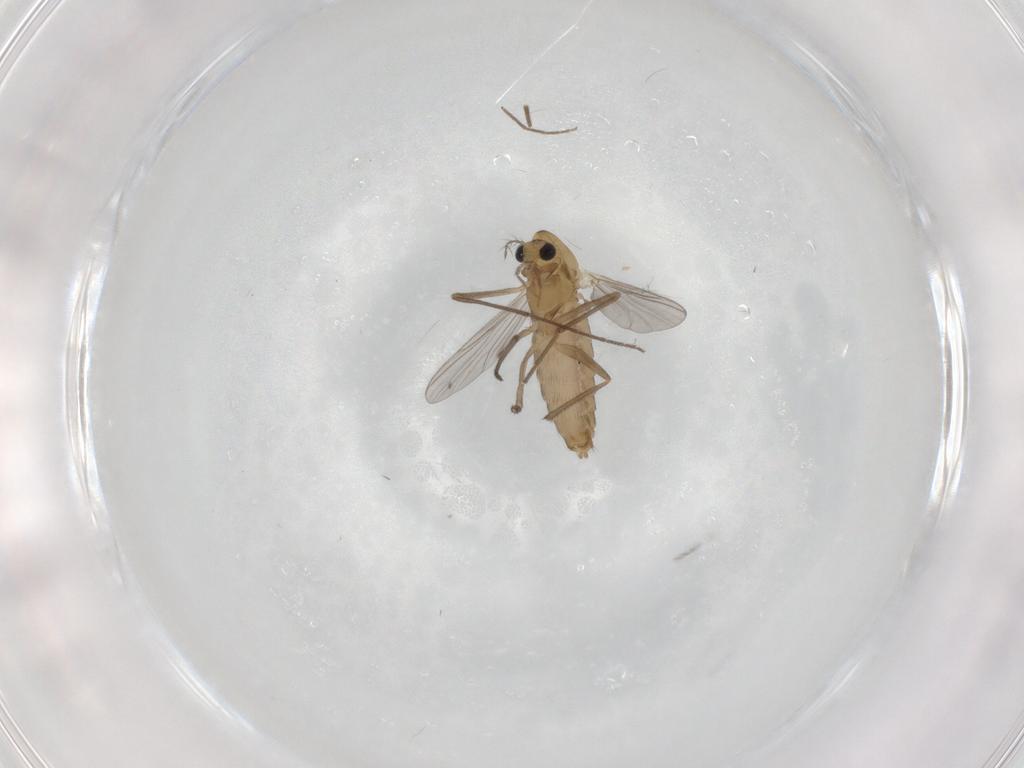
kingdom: Animalia
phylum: Arthropoda
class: Insecta
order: Diptera
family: Chironomidae
